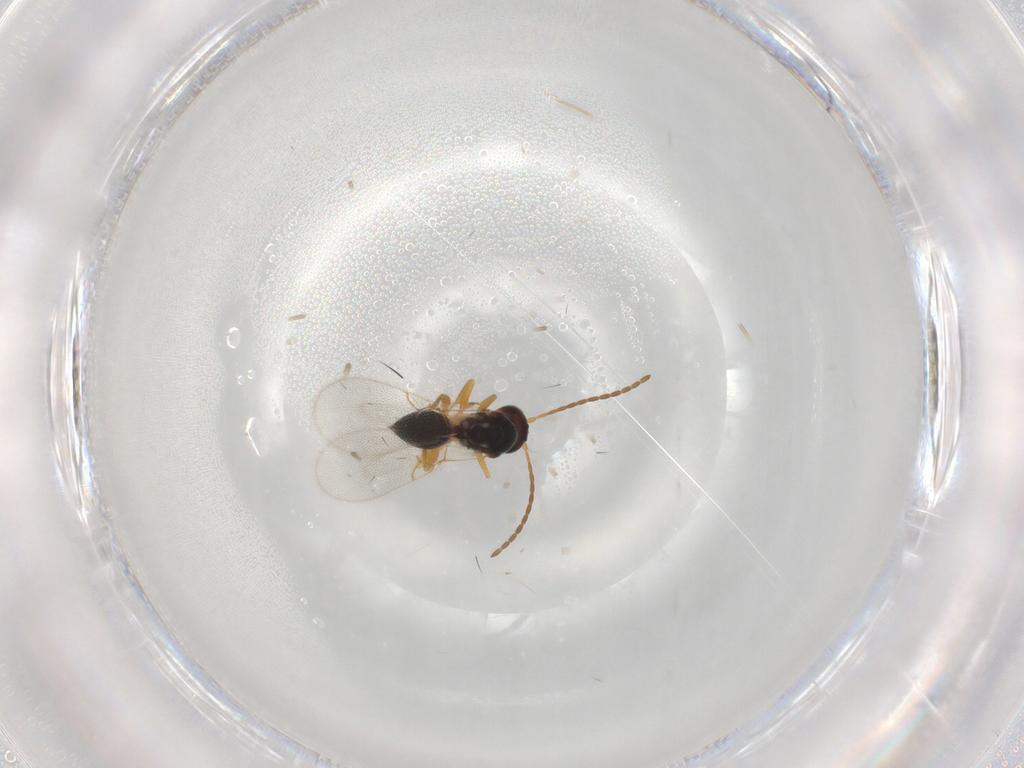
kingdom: Animalia
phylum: Arthropoda
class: Insecta
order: Hymenoptera
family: Figitidae
